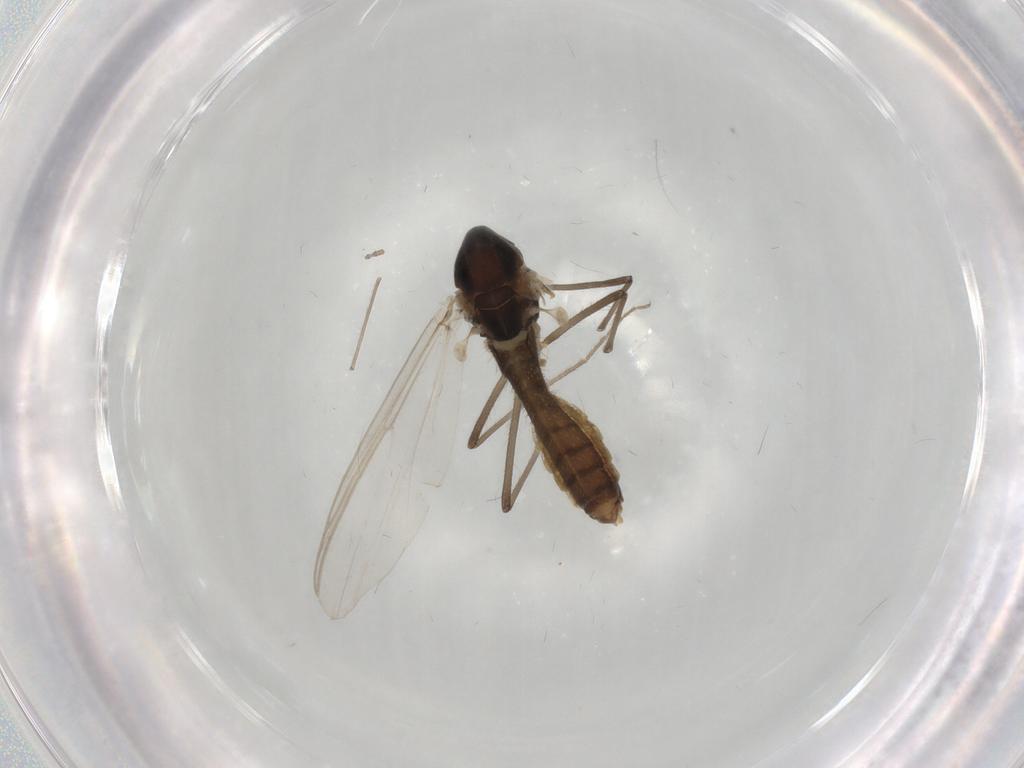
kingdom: Animalia
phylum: Arthropoda
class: Insecta
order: Diptera
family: Chironomidae
